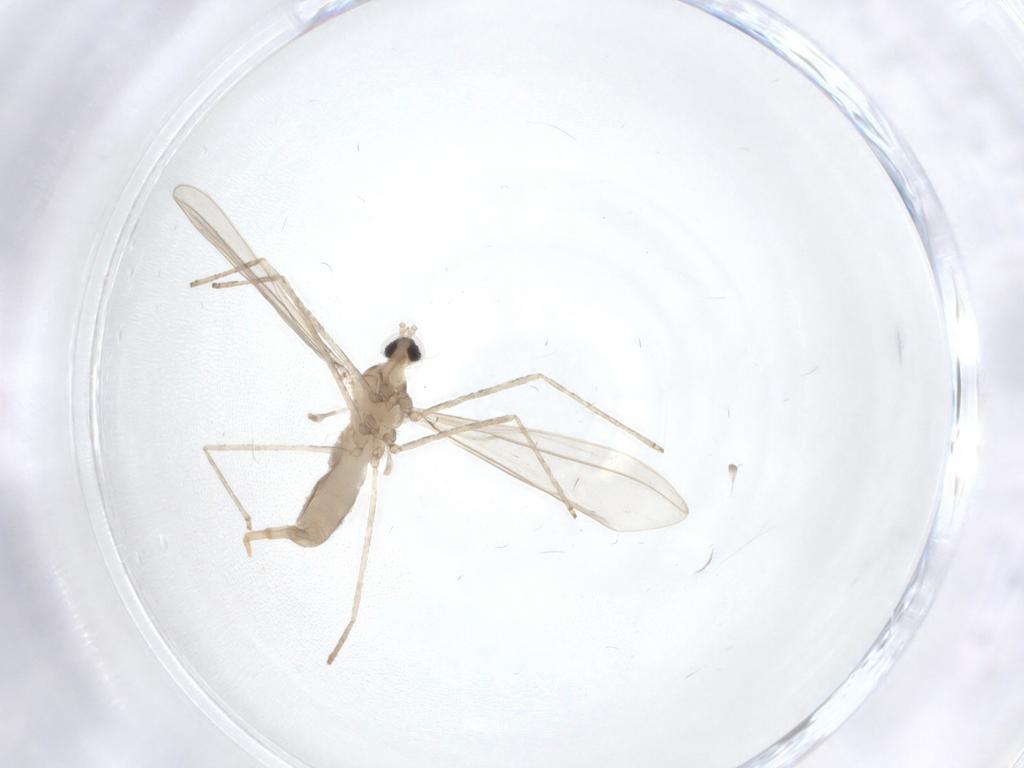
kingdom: Animalia
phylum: Arthropoda
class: Insecta
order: Diptera
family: Cecidomyiidae
